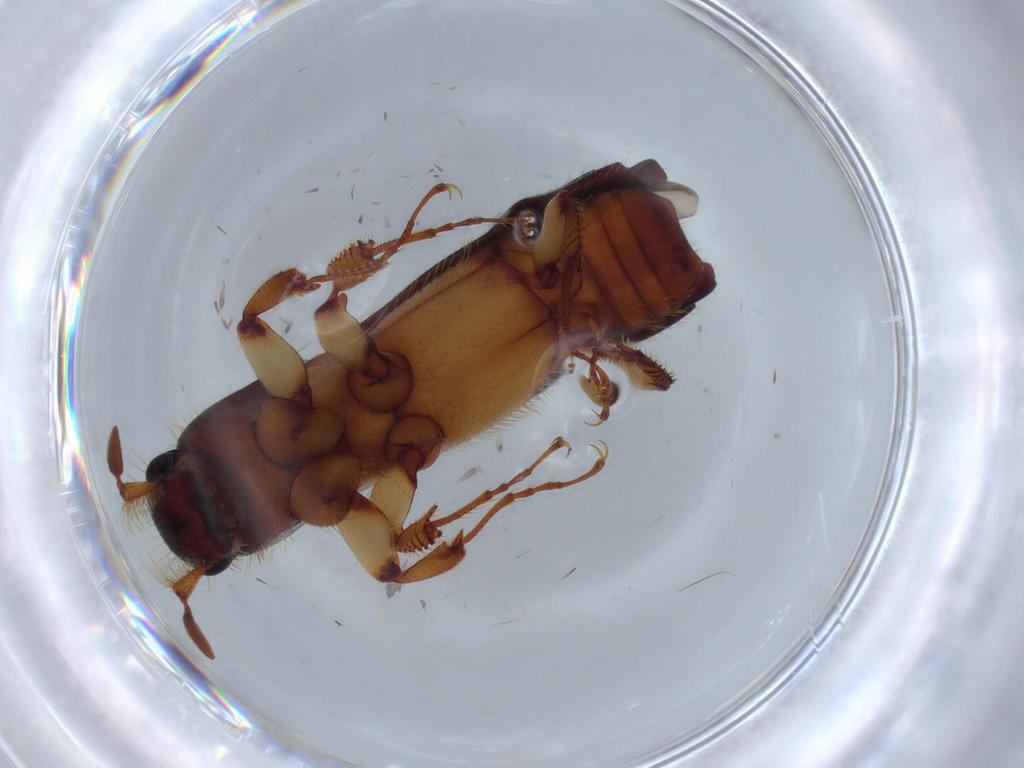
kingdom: Animalia
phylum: Arthropoda
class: Insecta
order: Coleoptera
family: Curculionidae
